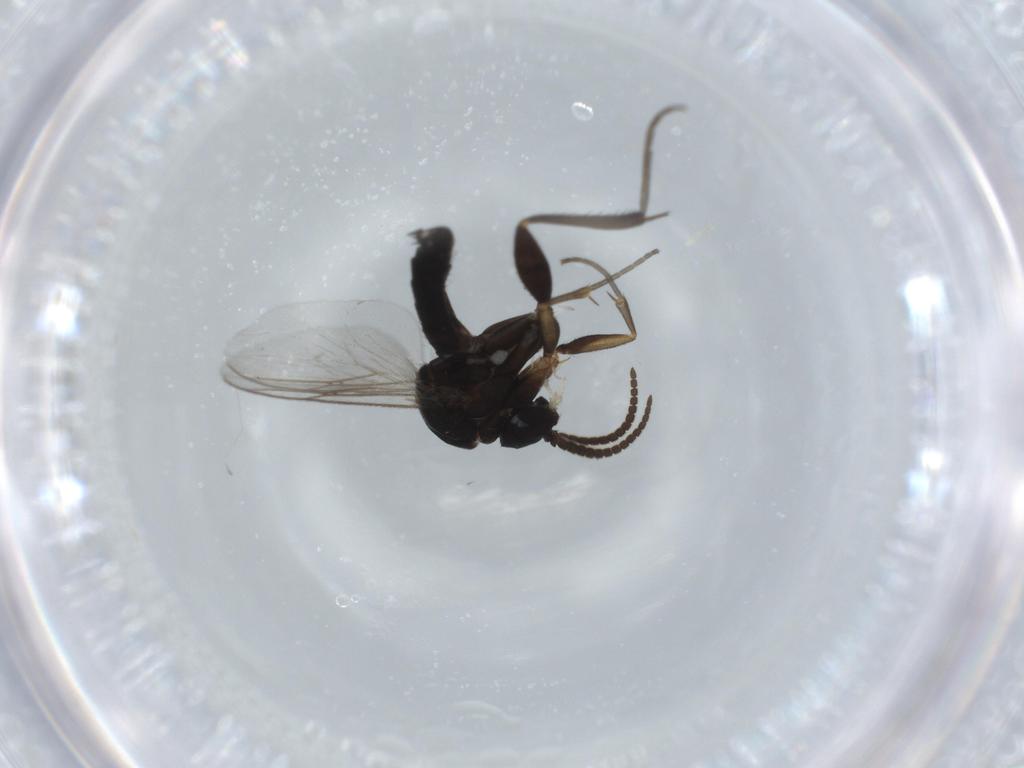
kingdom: Animalia
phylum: Arthropoda
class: Insecta
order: Diptera
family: Mycetophilidae
